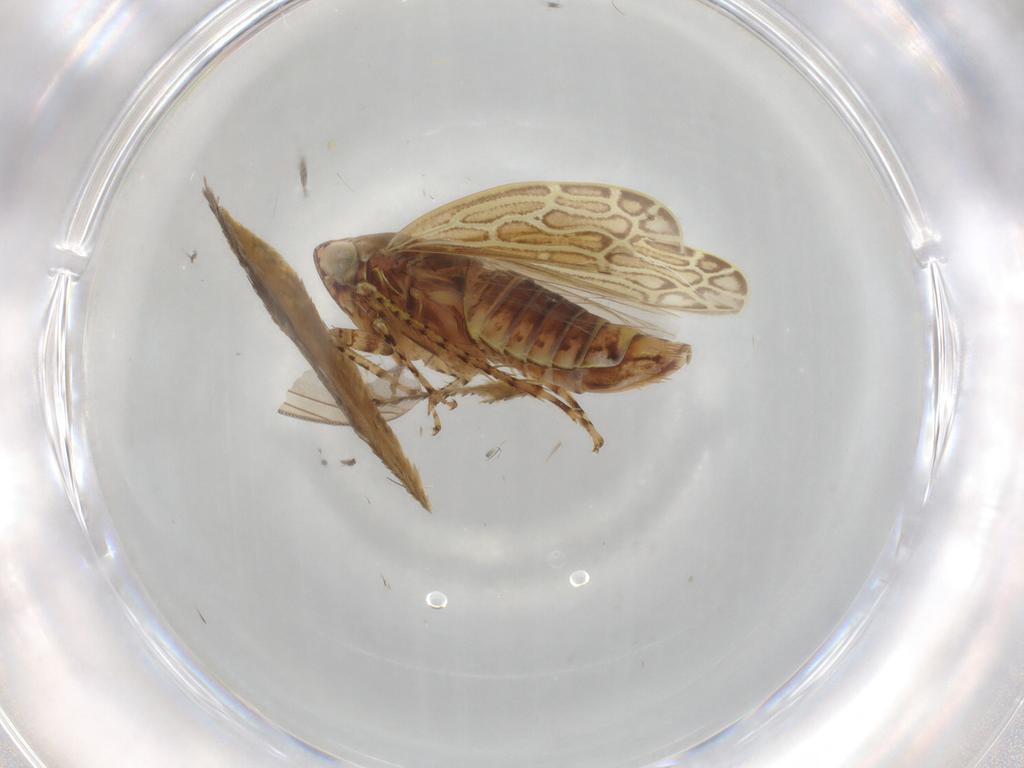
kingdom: Animalia
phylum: Arthropoda
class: Insecta
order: Hemiptera
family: Cicadellidae
